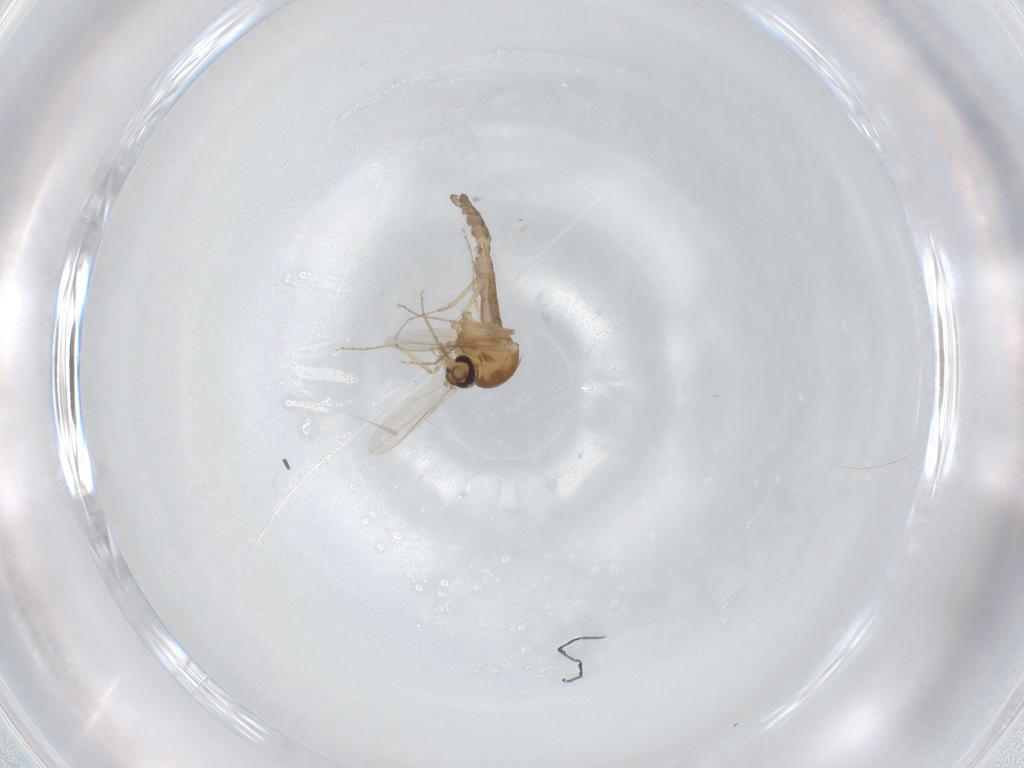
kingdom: Animalia
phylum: Arthropoda
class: Insecta
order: Diptera
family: Ceratopogonidae
